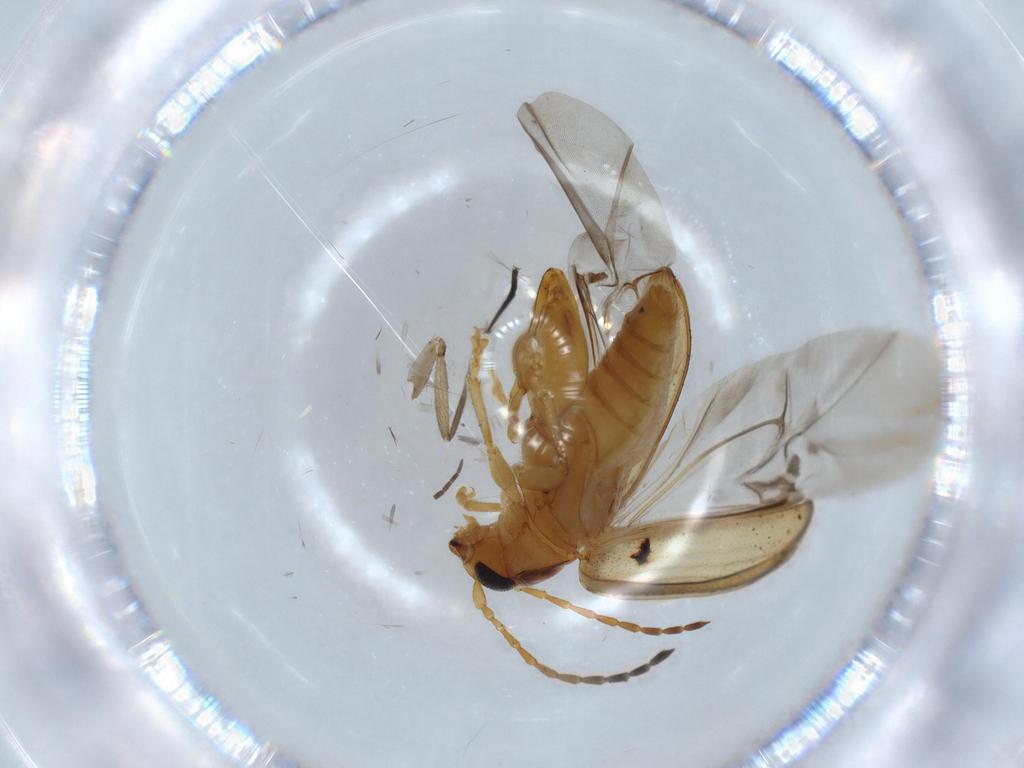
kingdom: Animalia
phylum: Arthropoda
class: Insecta
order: Coleoptera
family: Chrysomelidae
